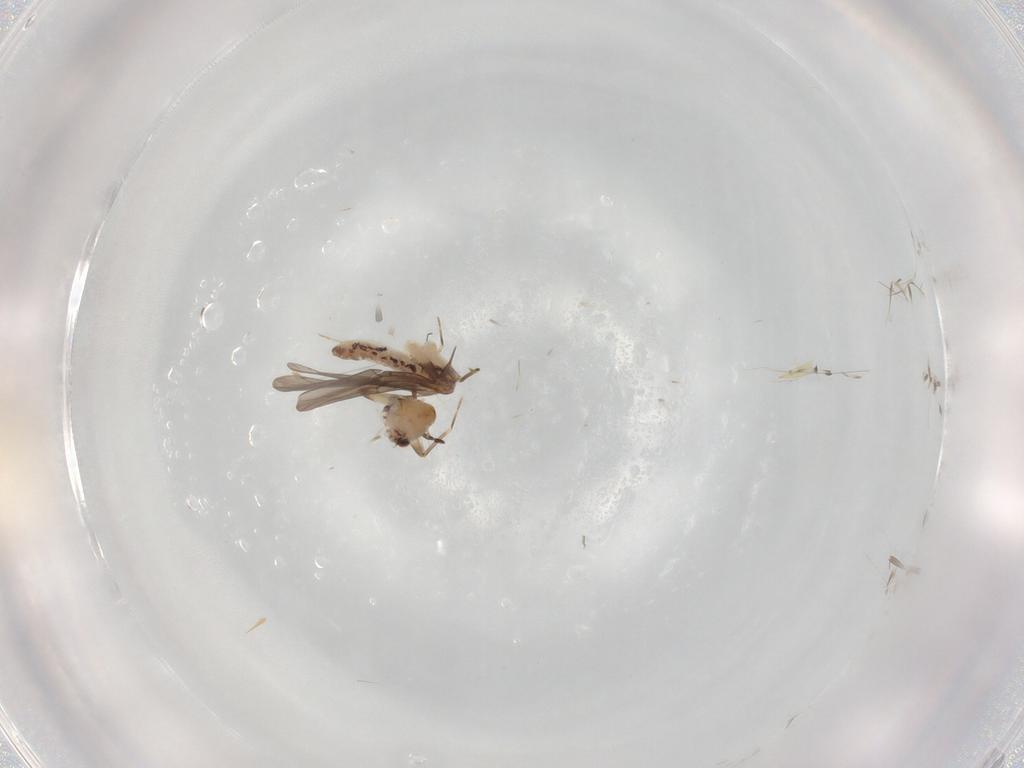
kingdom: Animalia
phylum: Arthropoda
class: Insecta
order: Psocodea
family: Lepidopsocidae
